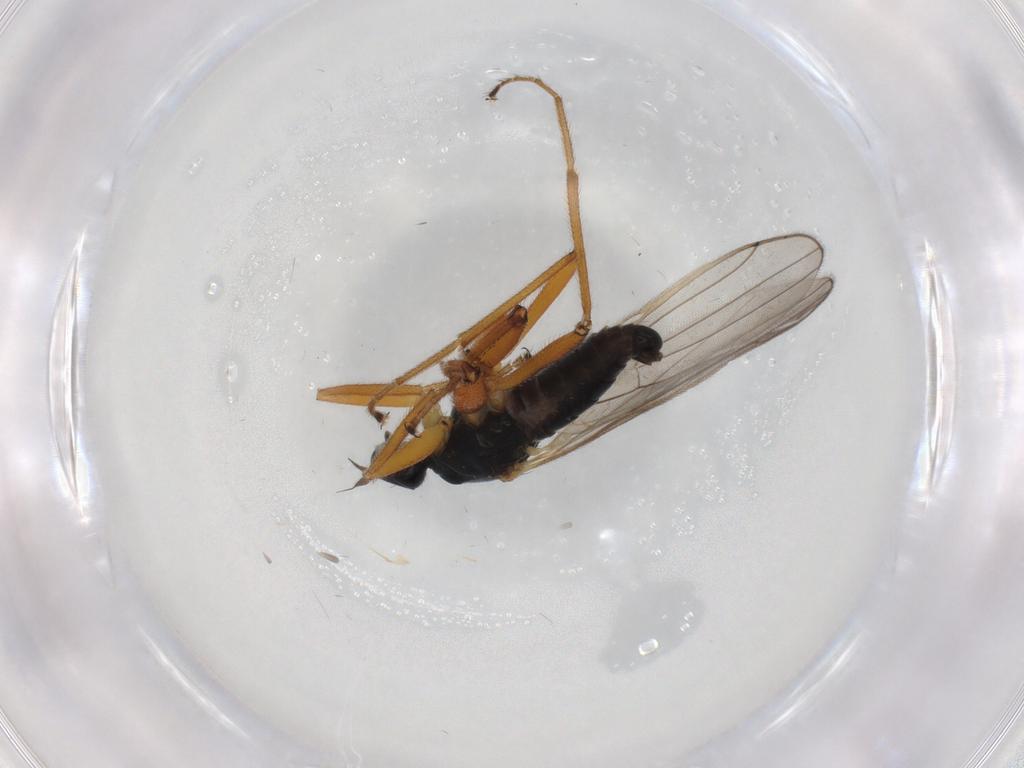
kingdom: Animalia
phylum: Arthropoda
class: Insecta
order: Diptera
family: Hybotidae
